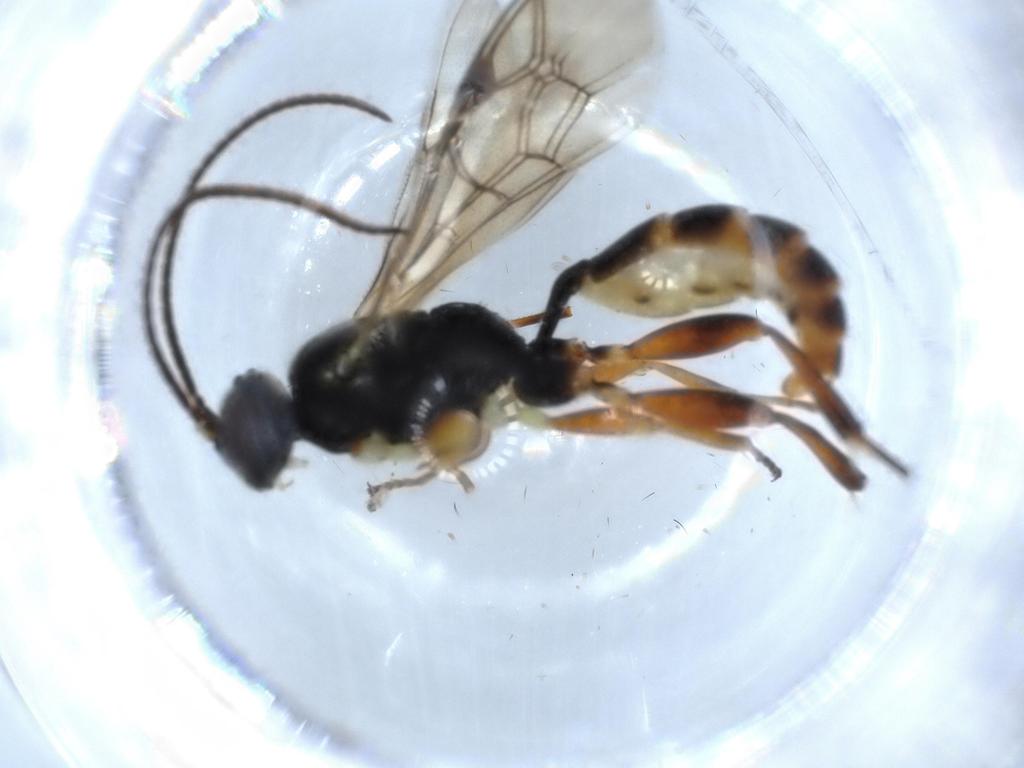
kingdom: Animalia
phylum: Arthropoda
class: Insecta
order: Hymenoptera
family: Ichneumonidae
